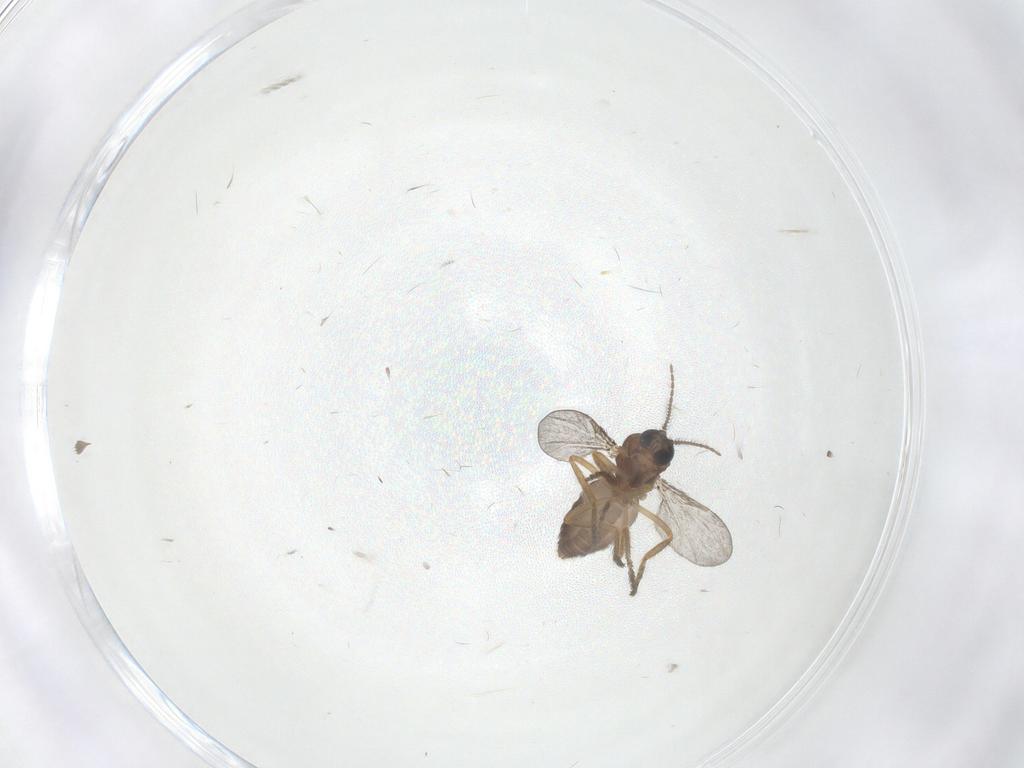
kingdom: Animalia
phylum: Arthropoda
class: Insecta
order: Diptera
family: Ceratopogonidae
